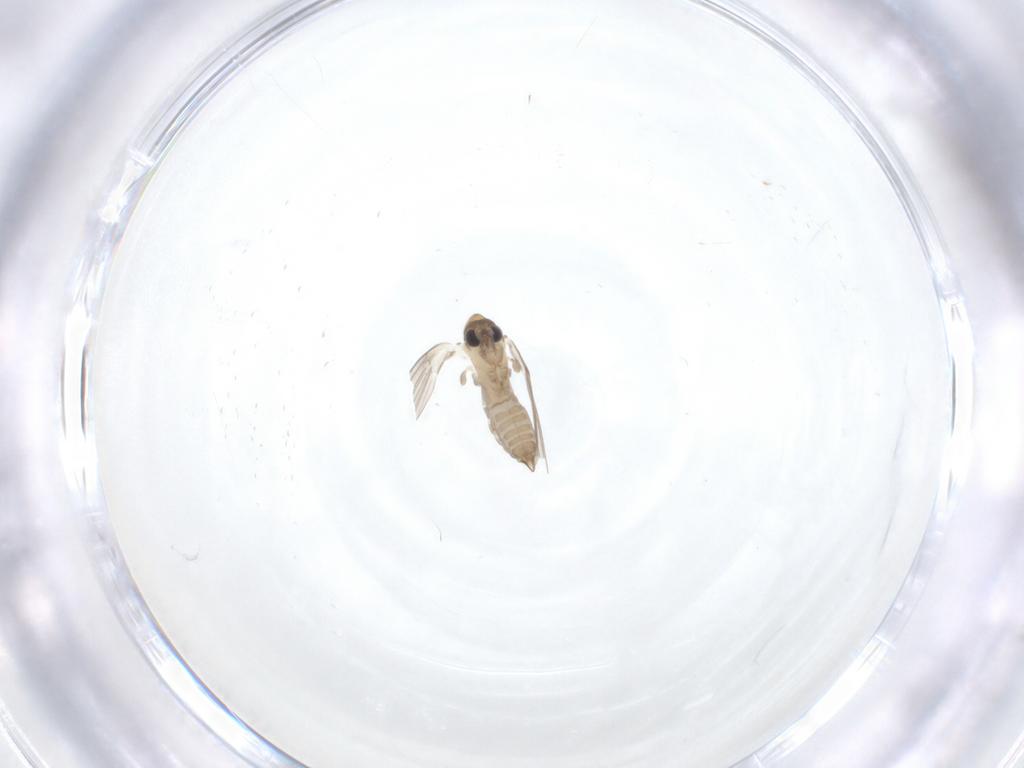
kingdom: Animalia
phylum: Arthropoda
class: Insecta
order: Diptera
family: Psychodidae
